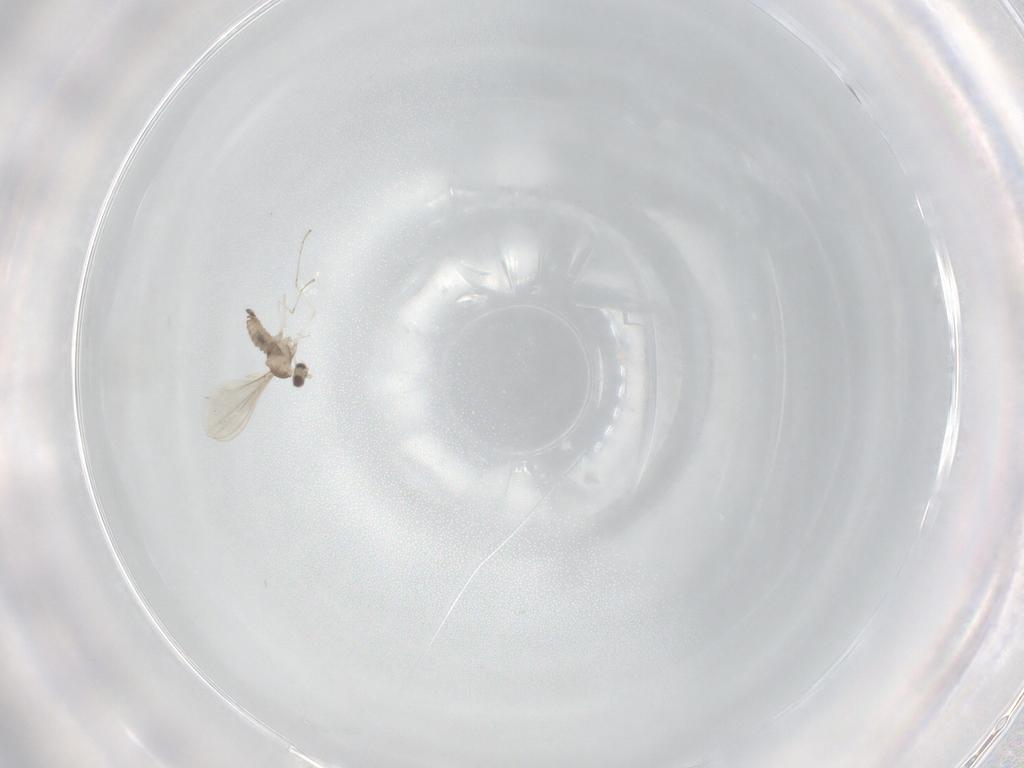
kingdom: Animalia
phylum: Arthropoda
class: Insecta
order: Diptera
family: Cecidomyiidae
